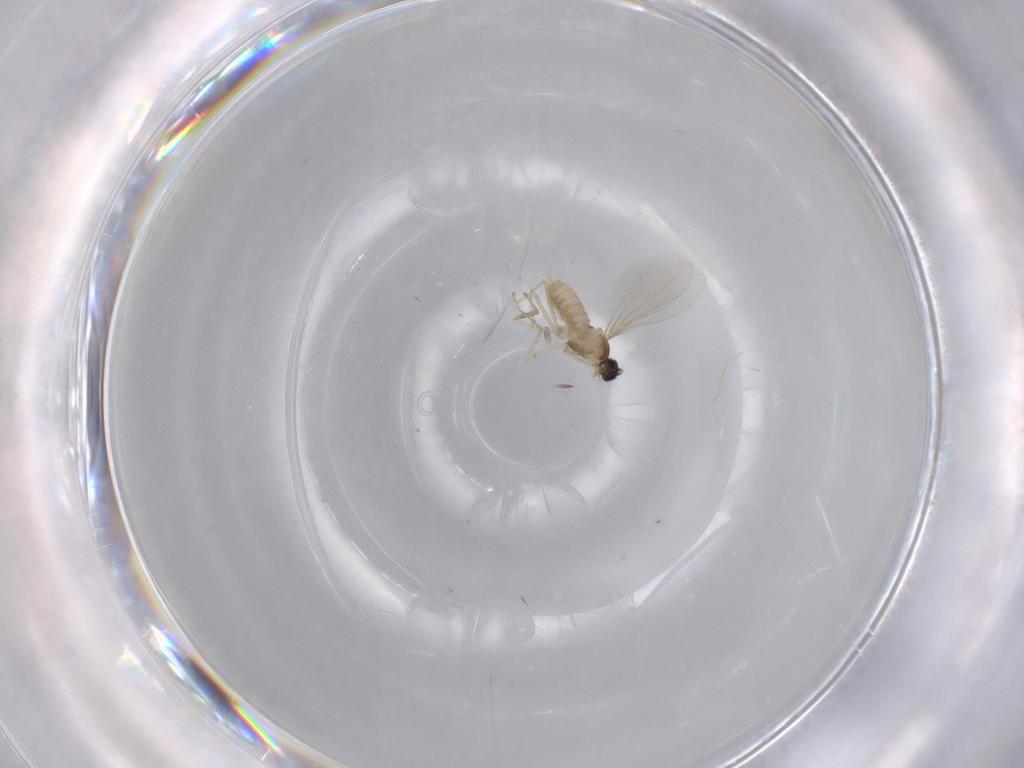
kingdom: Animalia
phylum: Arthropoda
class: Insecta
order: Diptera
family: Cecidomyiidae
